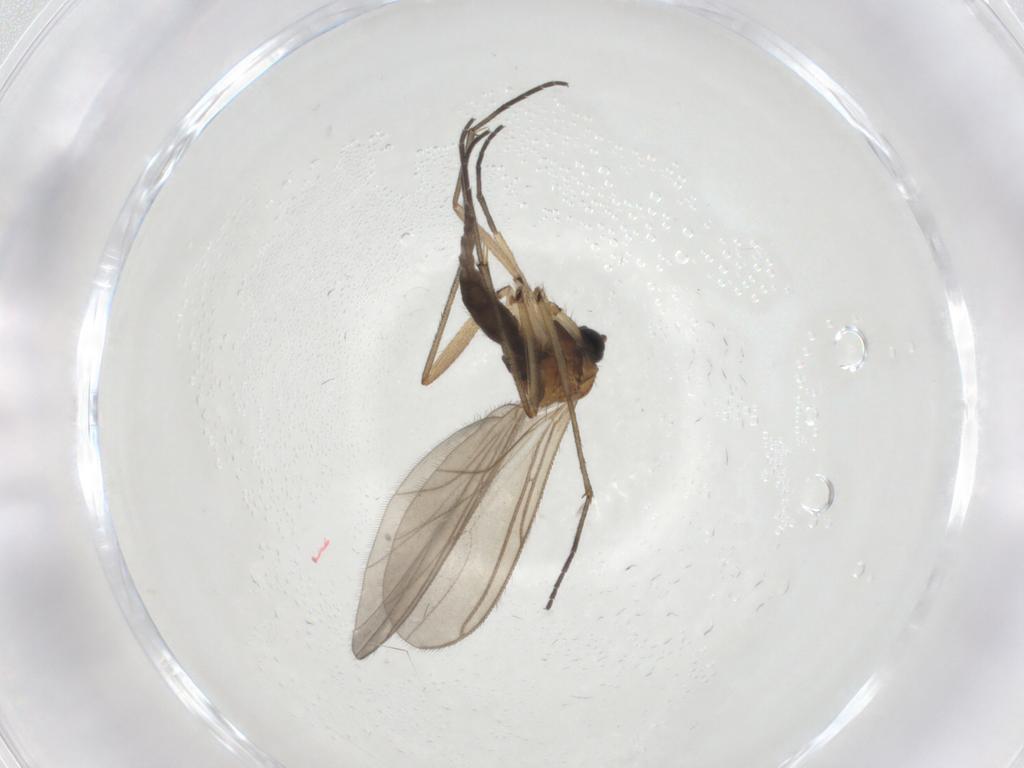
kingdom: Animalia
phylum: Arthropoda
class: Insecta
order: Diptera
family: Sciaridae
